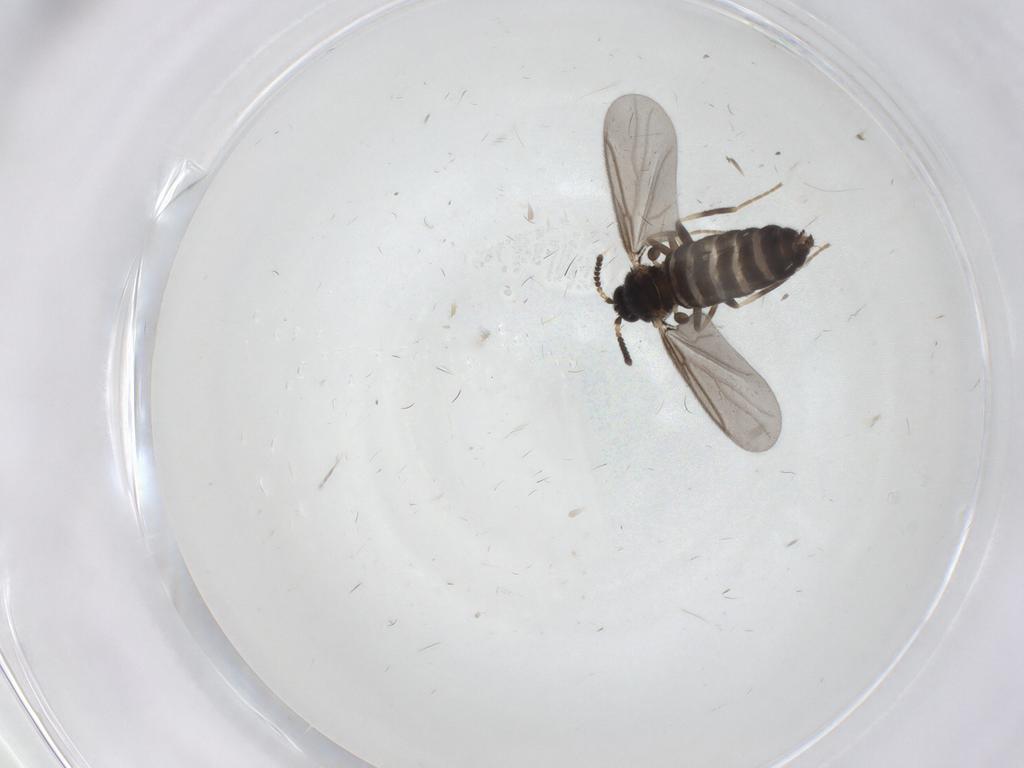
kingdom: Animalia
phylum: Arthropoda
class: Insecta
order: Diptera
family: Scatopsidae
